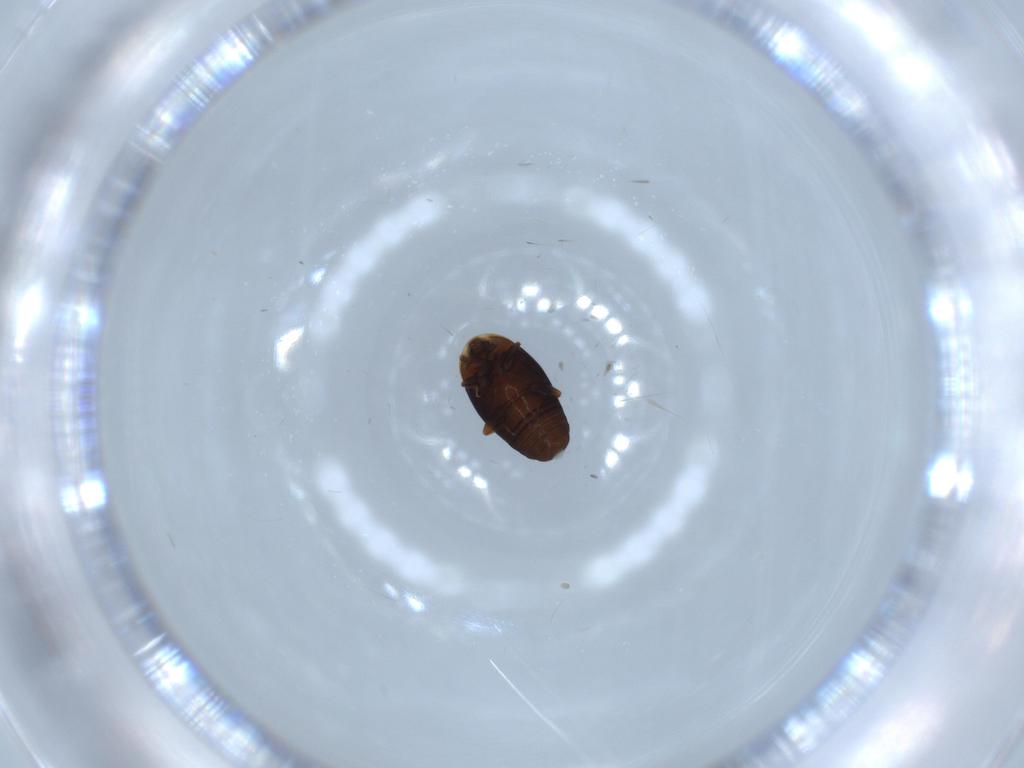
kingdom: Animalia
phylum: Arthropoda
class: Insecta
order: Coleoptera
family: Corylophidae
